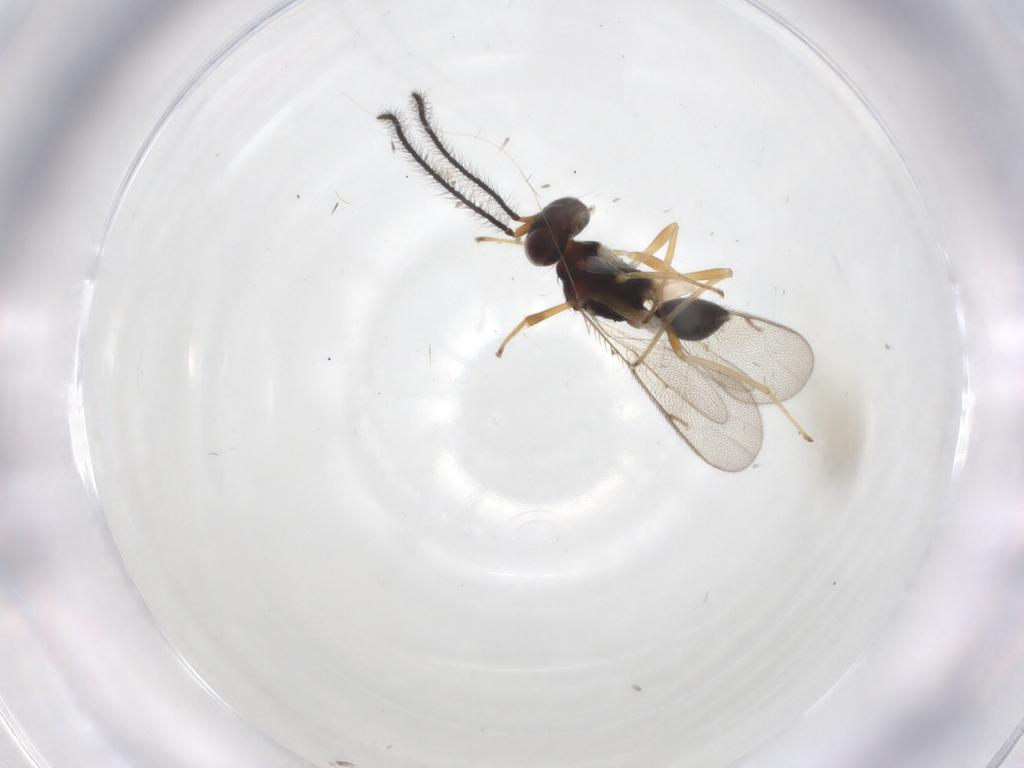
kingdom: Animalia
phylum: Arthropoda
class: Insecta
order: Hymenoptera
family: Diparidae
